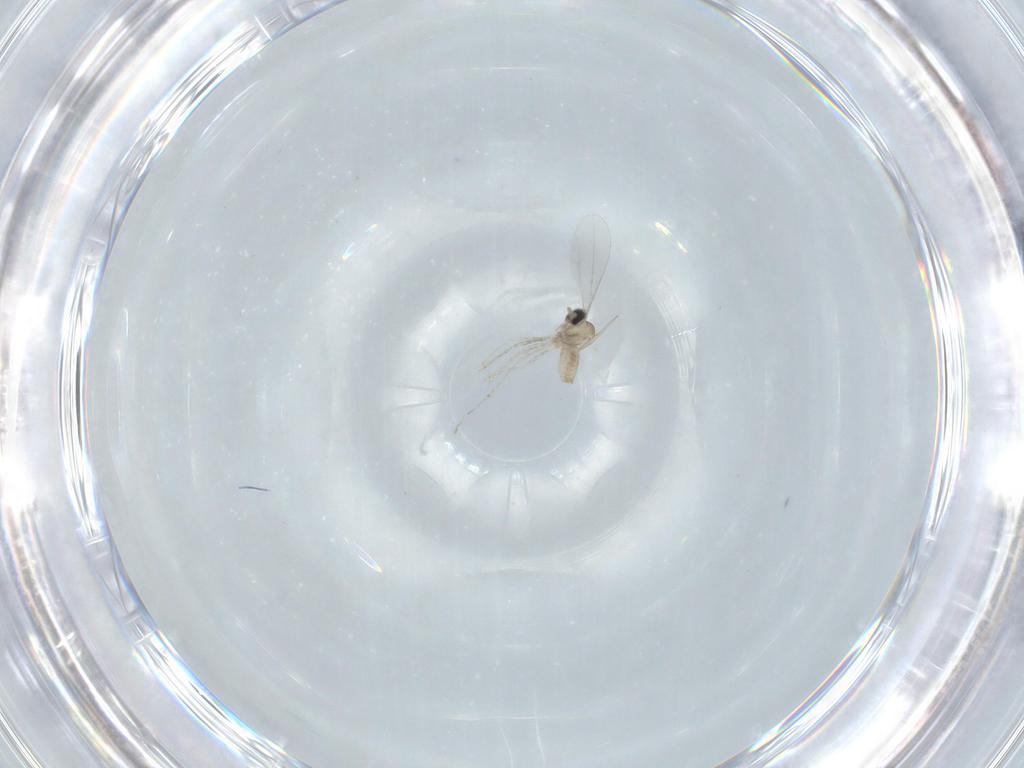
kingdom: Animalia
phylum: Arthropoda
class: Insecta
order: Diptera
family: Cecidomyiidae
